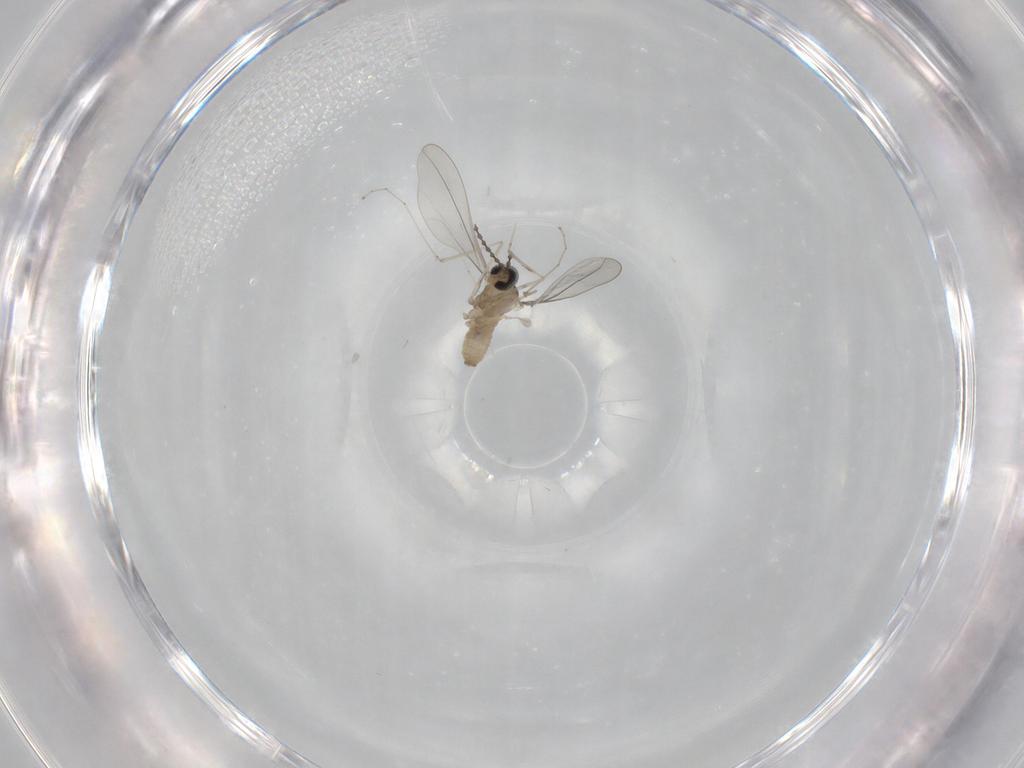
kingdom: Animalia
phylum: Arthropoda
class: Insecta
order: Diptera
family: Cecidomyiidae
